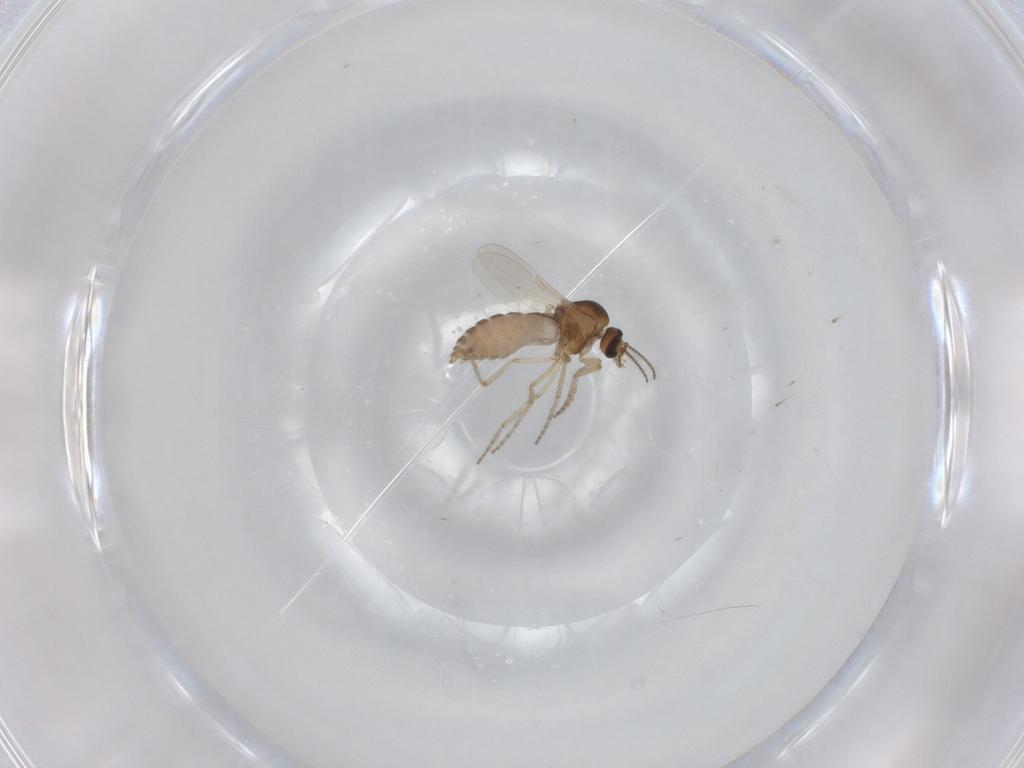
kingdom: Animalia
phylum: Arthropoda
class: Insecta
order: Diptera
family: Ceratopogonidae
